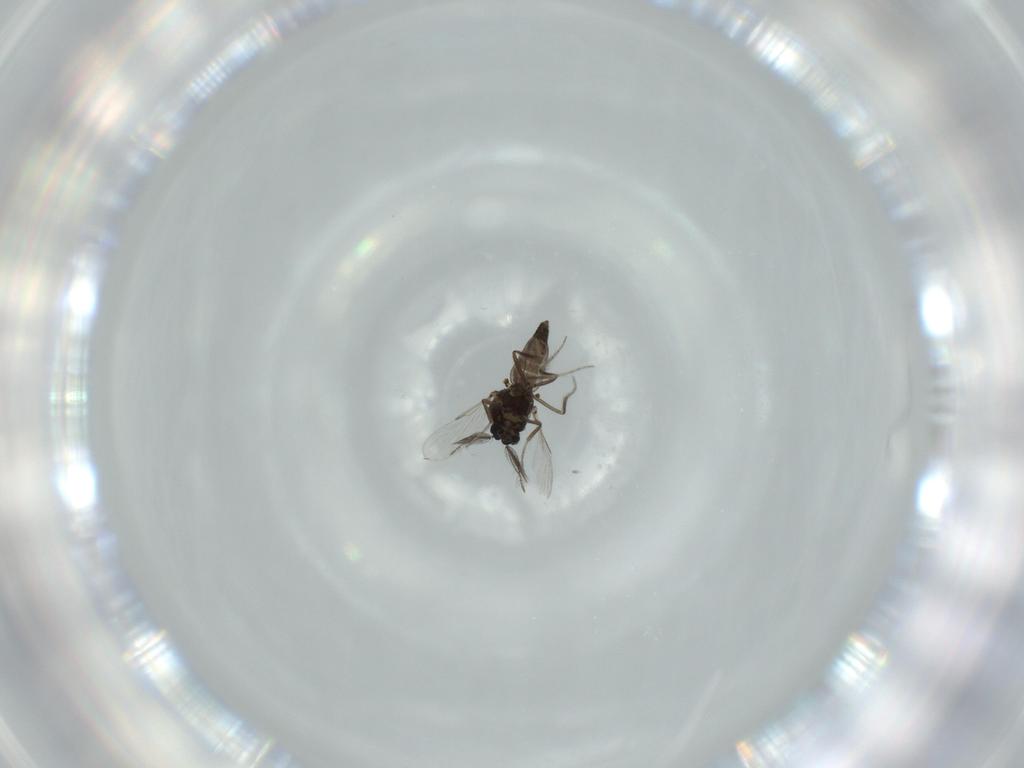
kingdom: Animalia
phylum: Arthropoda
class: Insecta
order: Diptera
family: Ceratopogonidae
